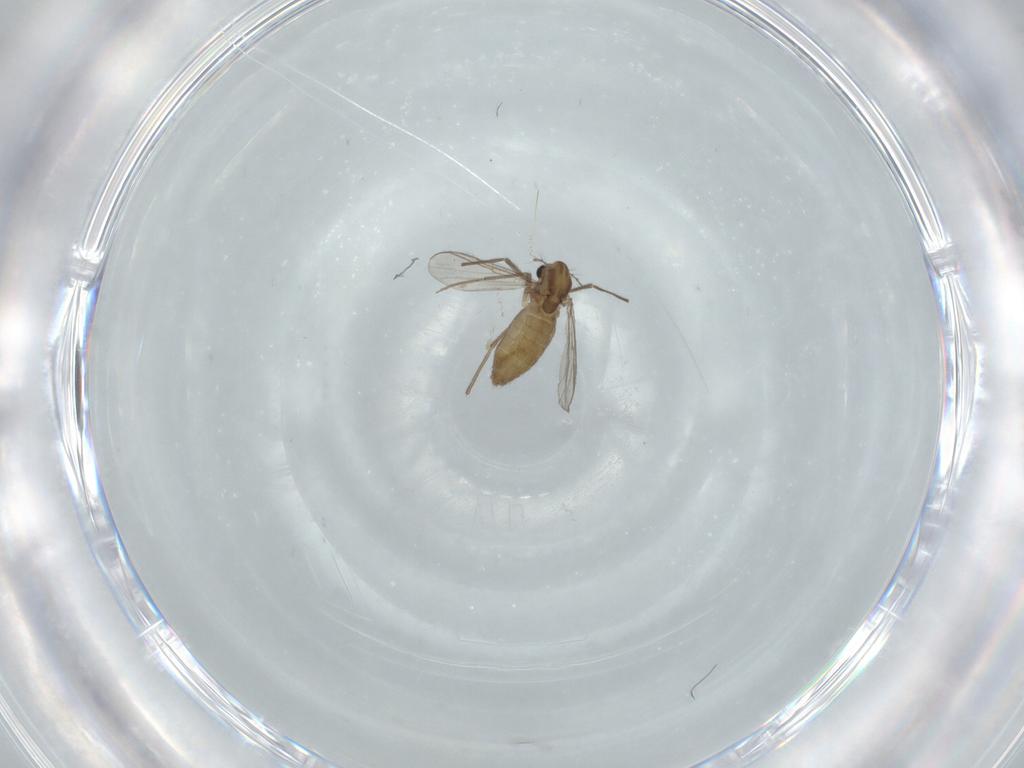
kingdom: Animalia
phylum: Arthropoda
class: Insecta
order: Diptera
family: Chironomidae
